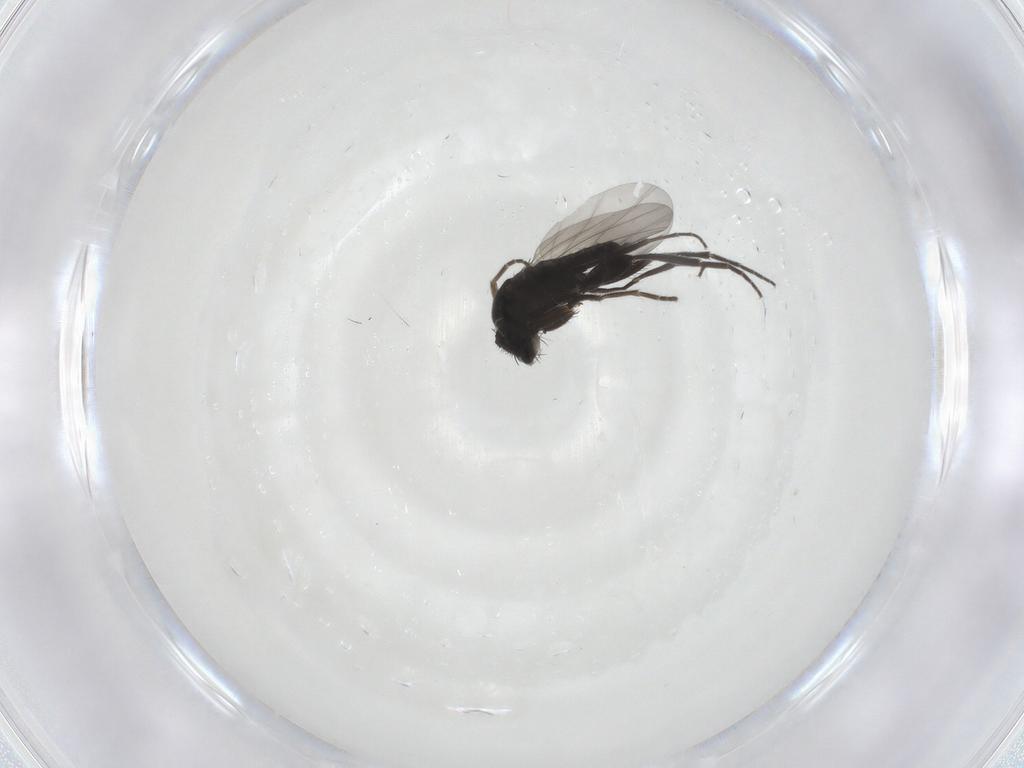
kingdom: Animalia
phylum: Arthropoda
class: Insecta
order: Diptera
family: Phoridae
